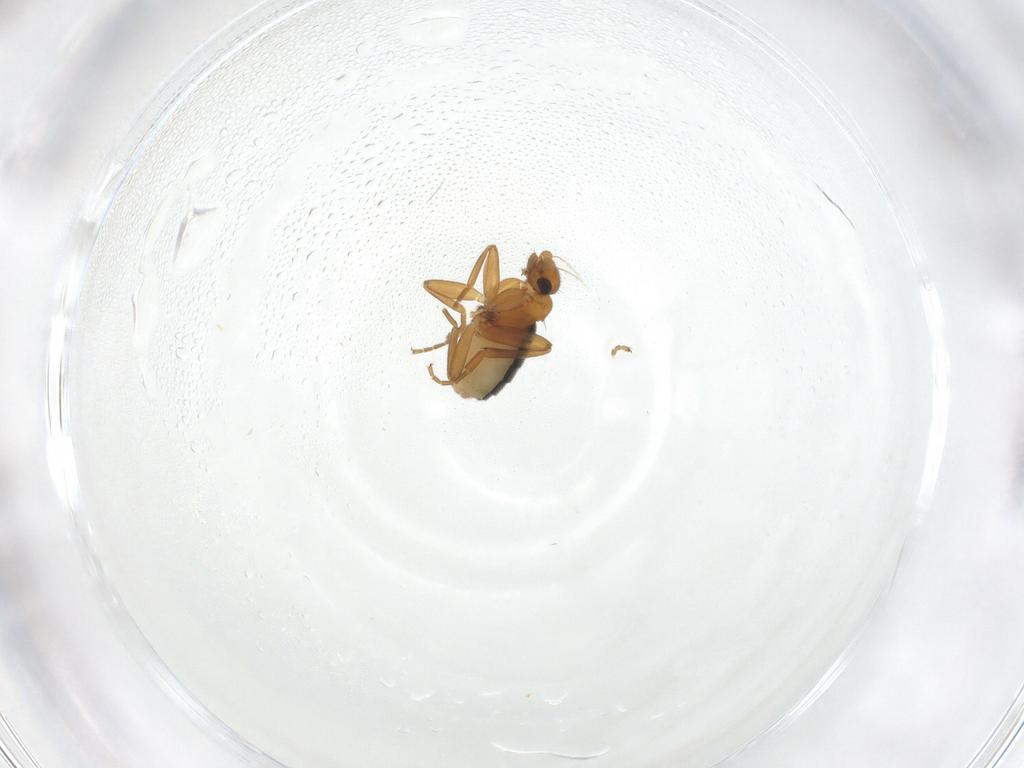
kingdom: Animalia
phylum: Arthropoda
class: Insecta
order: Diptera
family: Phoridae
